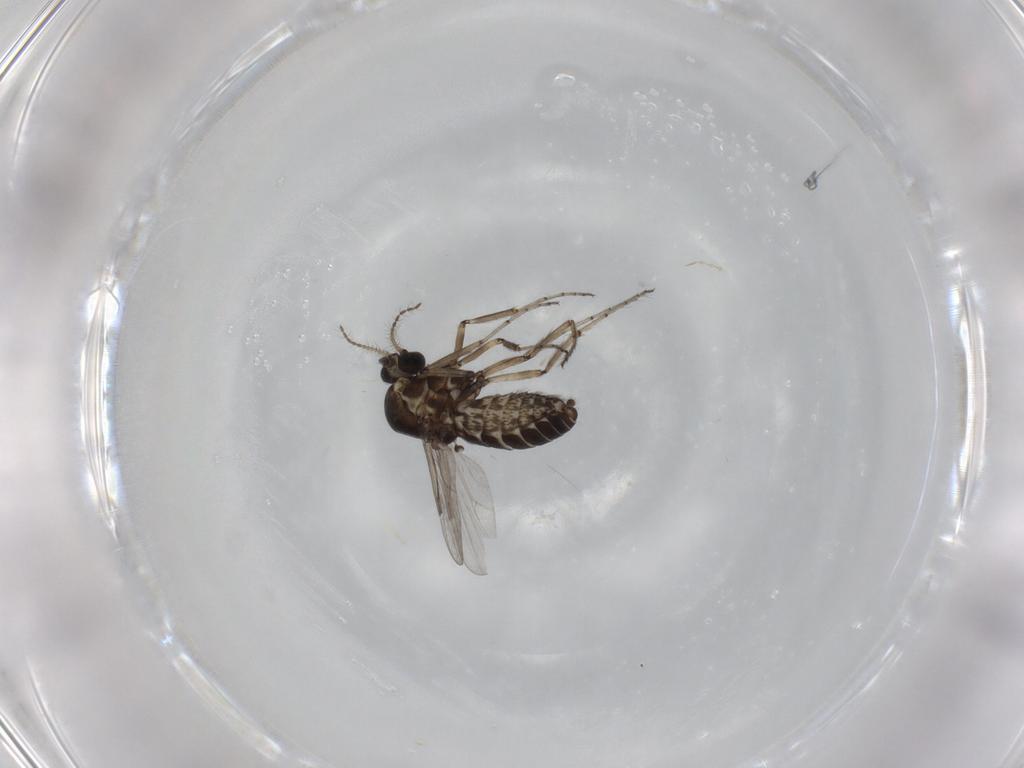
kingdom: Animalia
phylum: Arthropoda
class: Insecta
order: Diptera
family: Ceratopogonidae
